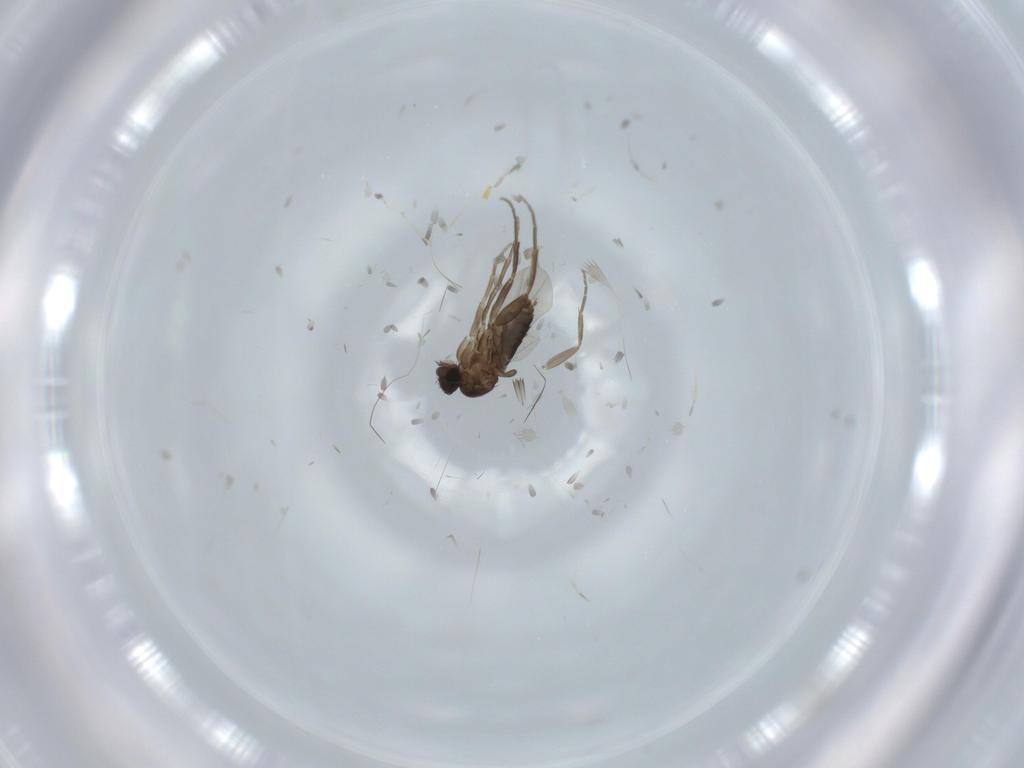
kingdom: Animalia
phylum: Arthropoda
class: Insecta
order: Diptera
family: Phoridae
